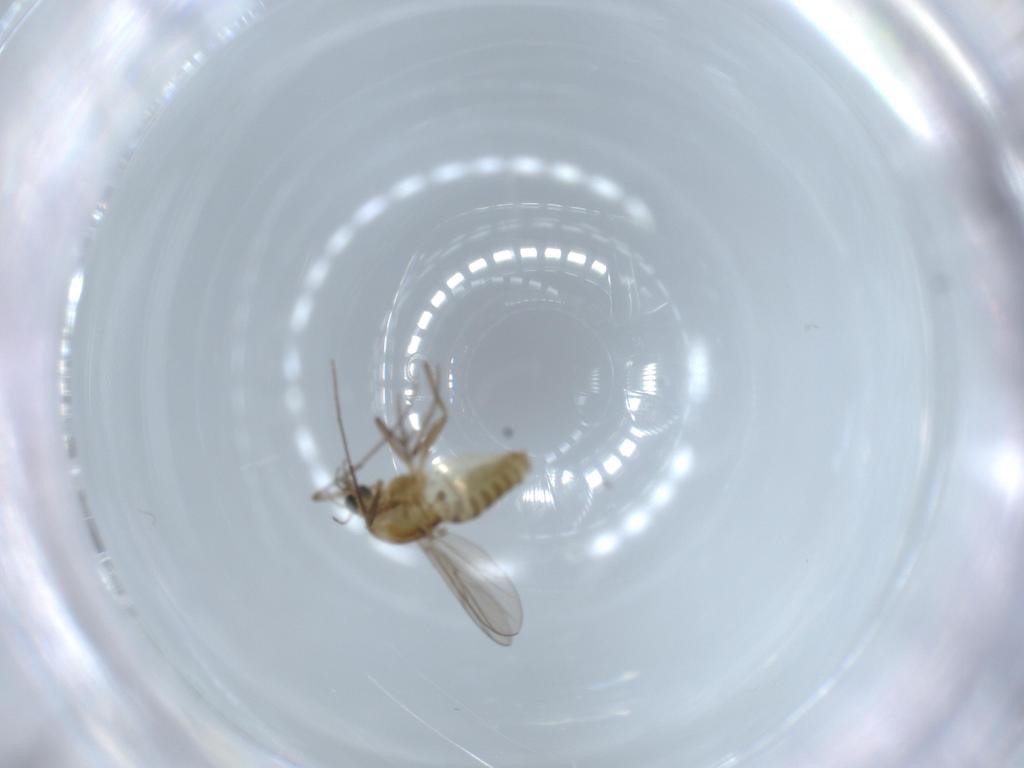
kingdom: Animalia
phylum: Arthropoda
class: Insecta
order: Diptera
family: Chironomidae
